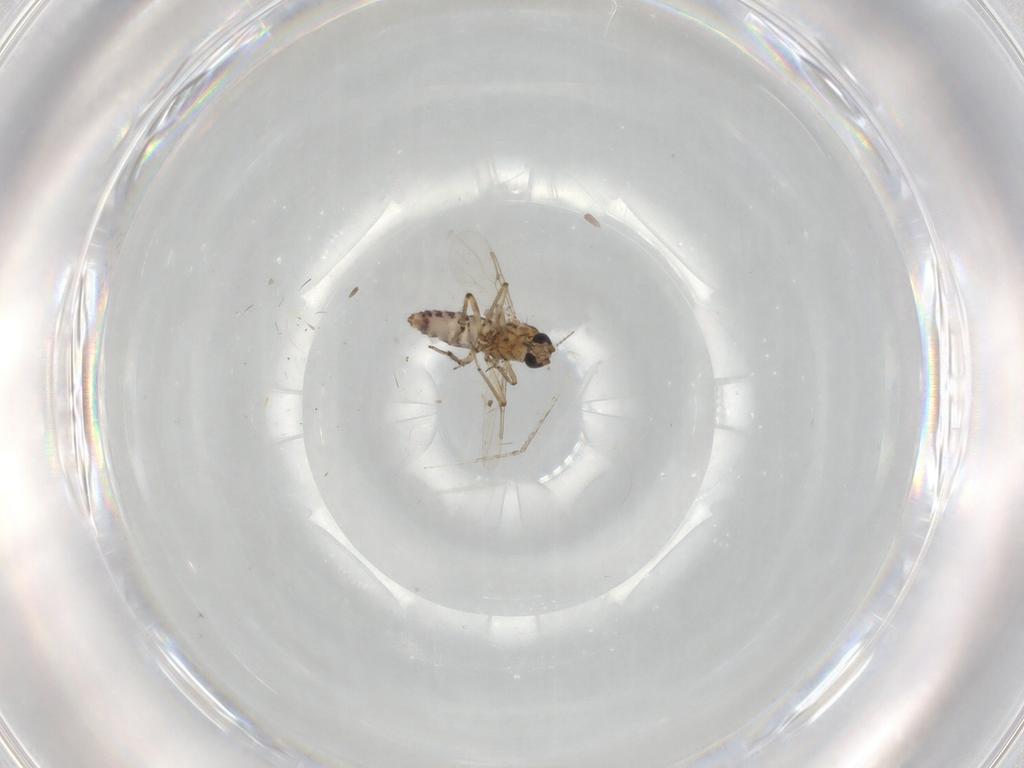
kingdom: Animalia
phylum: Arthropoda
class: Insecta
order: Diptera
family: Ceratopogonidae
